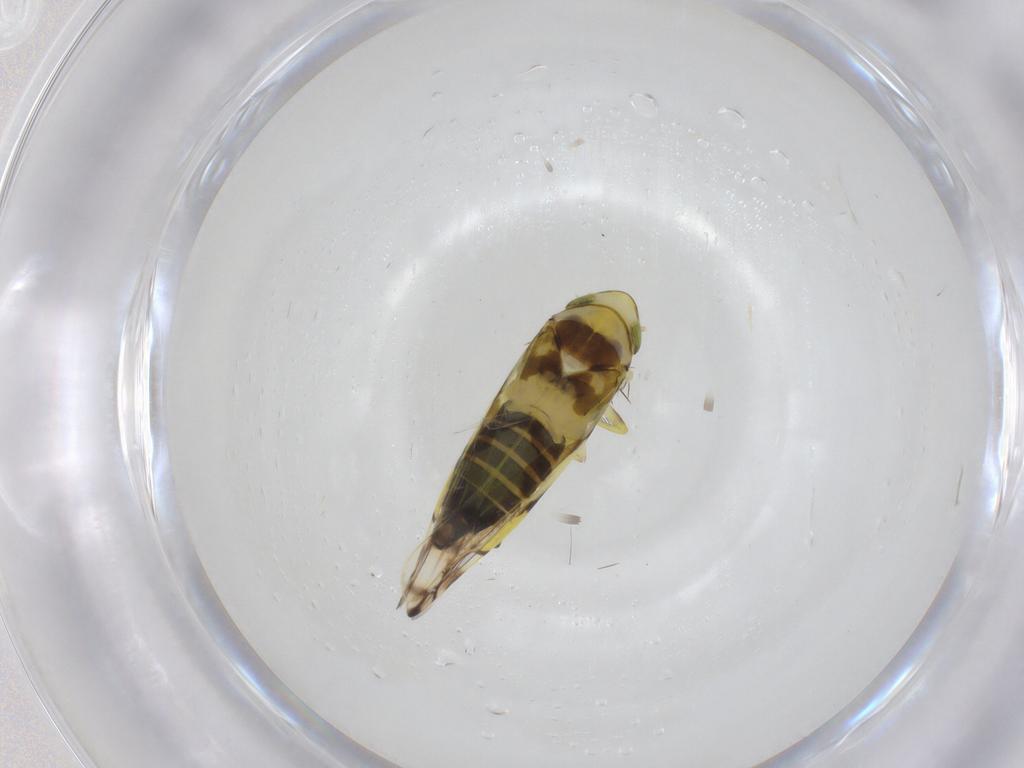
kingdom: Animalia
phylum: Arthropoda
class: Insecta
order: Hemiptera
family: Cicadellidae
